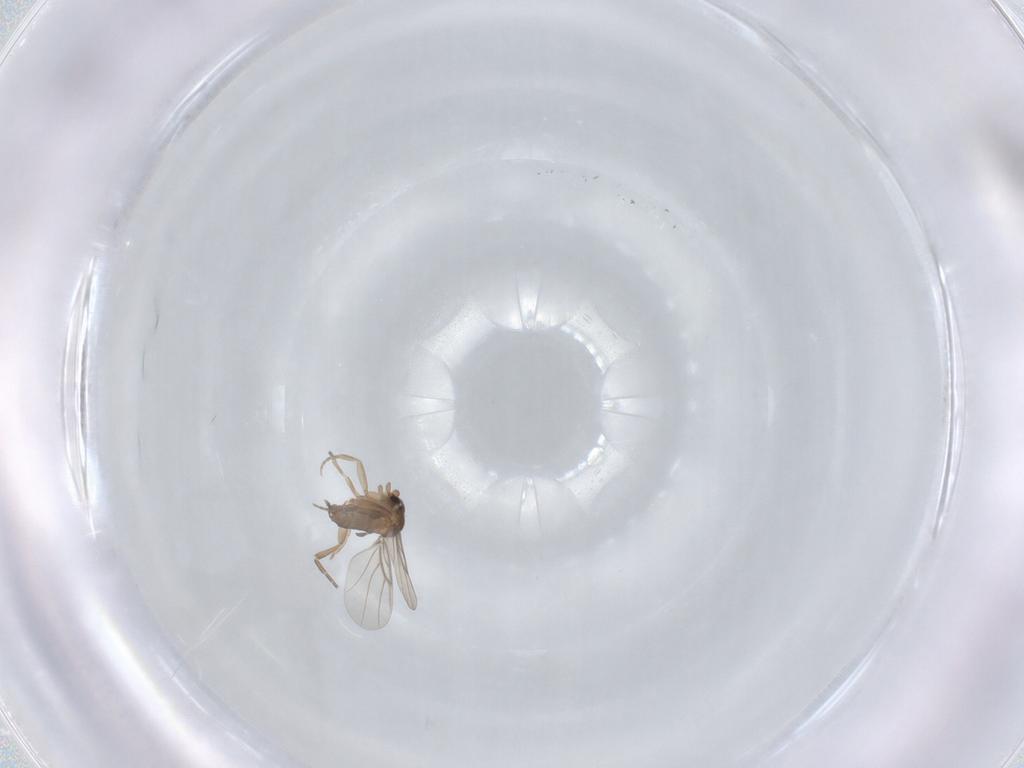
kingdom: Animalia
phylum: Arthropoda
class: Insecta
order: Diptera
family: Phoridae
